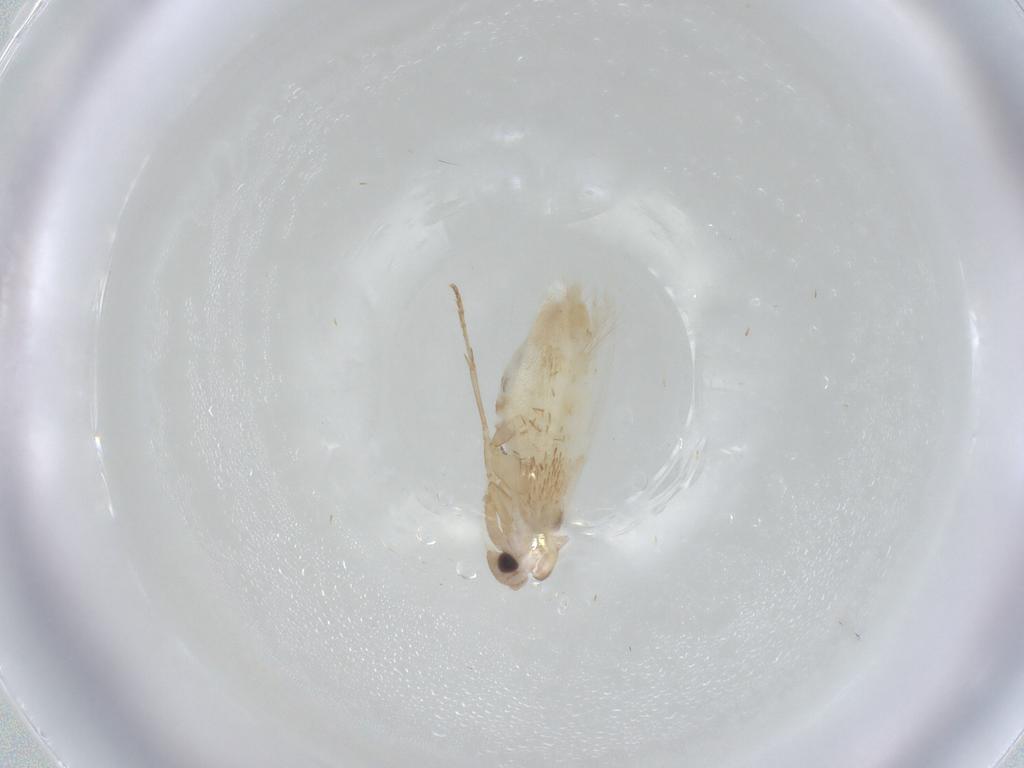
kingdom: Animalia
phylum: Arthropoda
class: Insecta
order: Lepidoptera
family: Bucculatricidae
